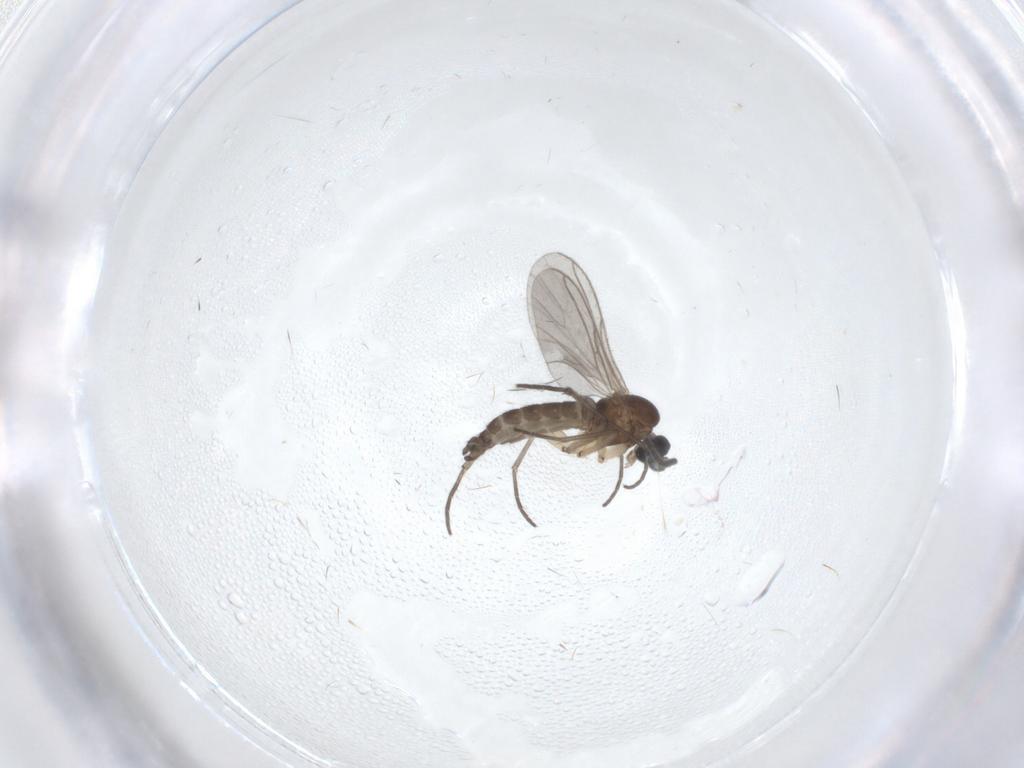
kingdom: Animalia
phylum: Arthropoda
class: Insecta
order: Diptera
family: Sciaridae
